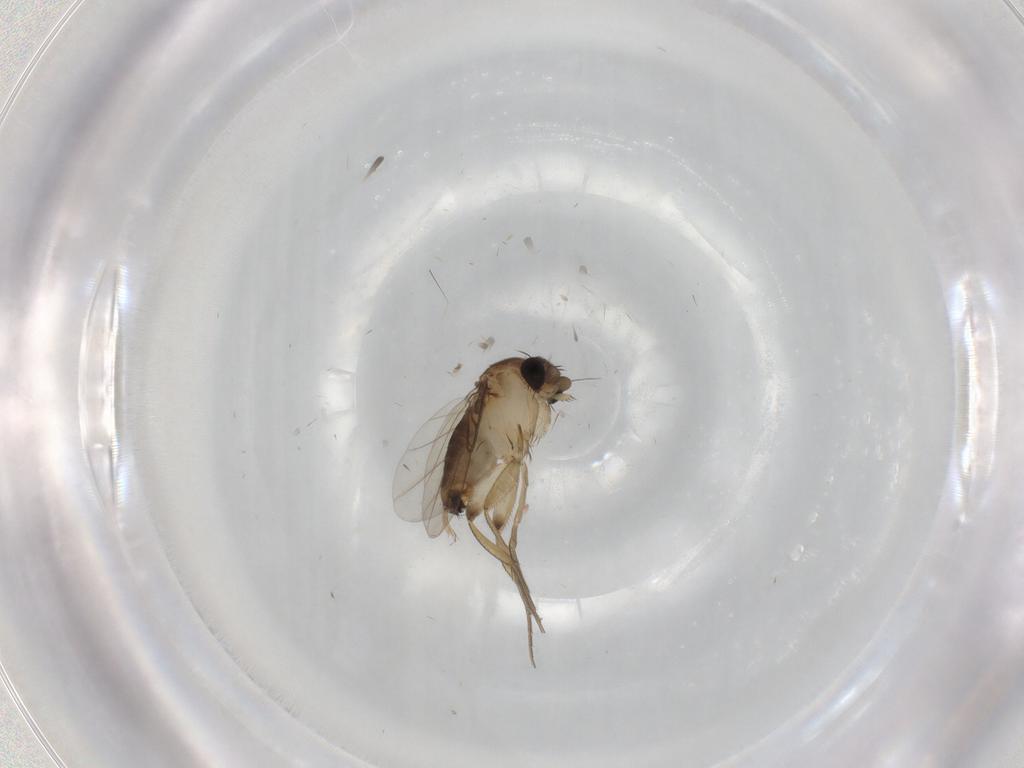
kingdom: Animalia
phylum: Arthropoda
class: Insecta
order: Diptera
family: Phoridae
